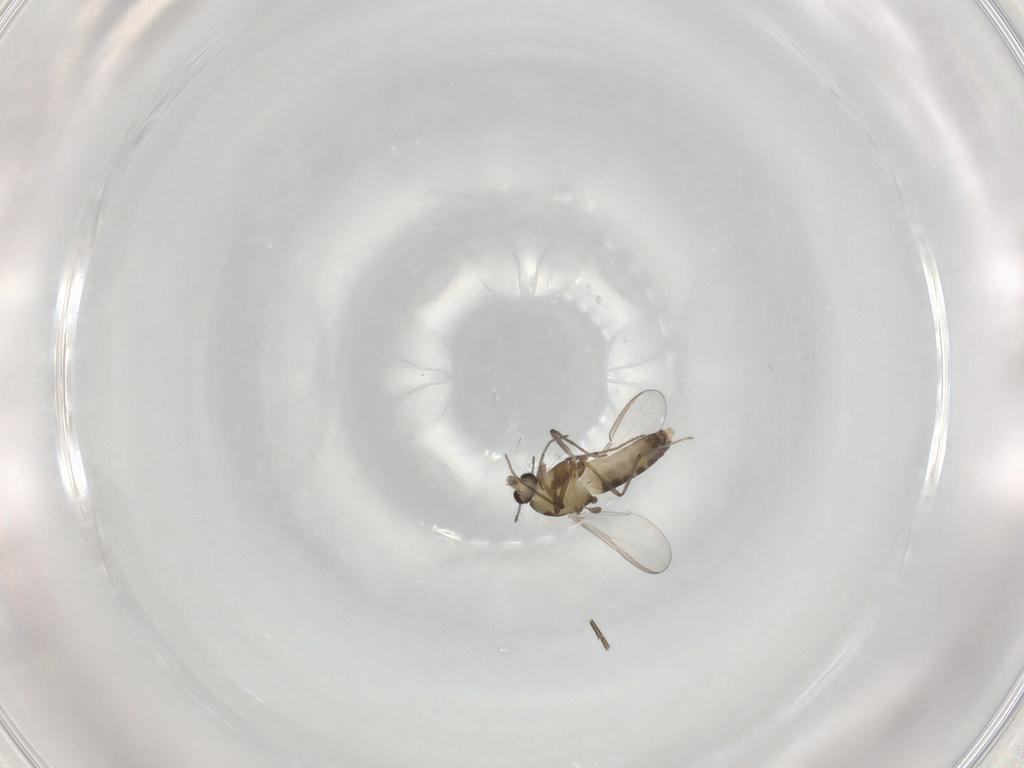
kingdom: Animalia
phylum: Arthropoda
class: Insecta
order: Diptera
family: Chironomidae
